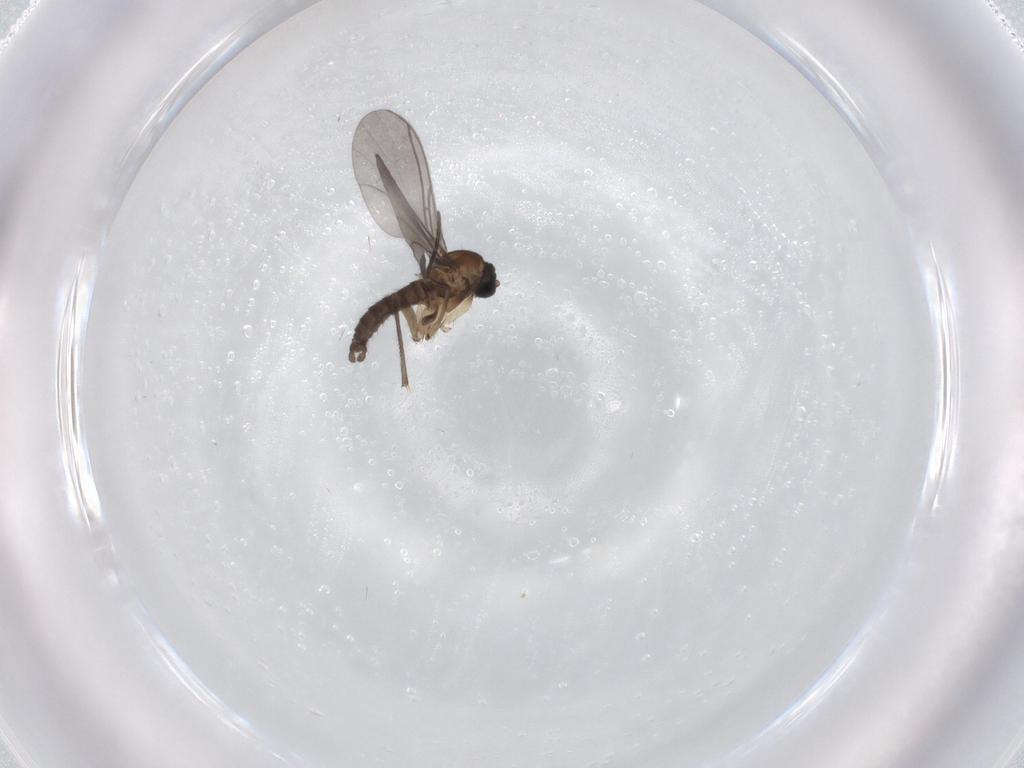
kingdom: Animalia
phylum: Arthropoda
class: Insecta
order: Diptera
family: Sciaridae
